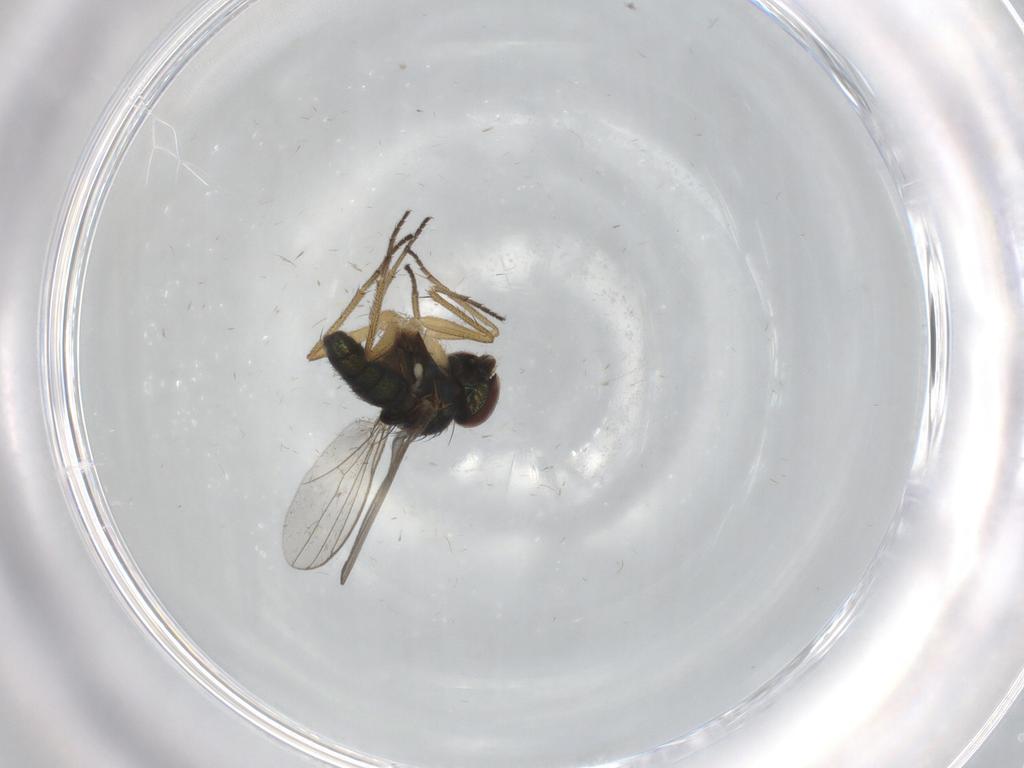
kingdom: Animalia
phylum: Arthropoda
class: Insecta
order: Diptera
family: Dolichopodidae
